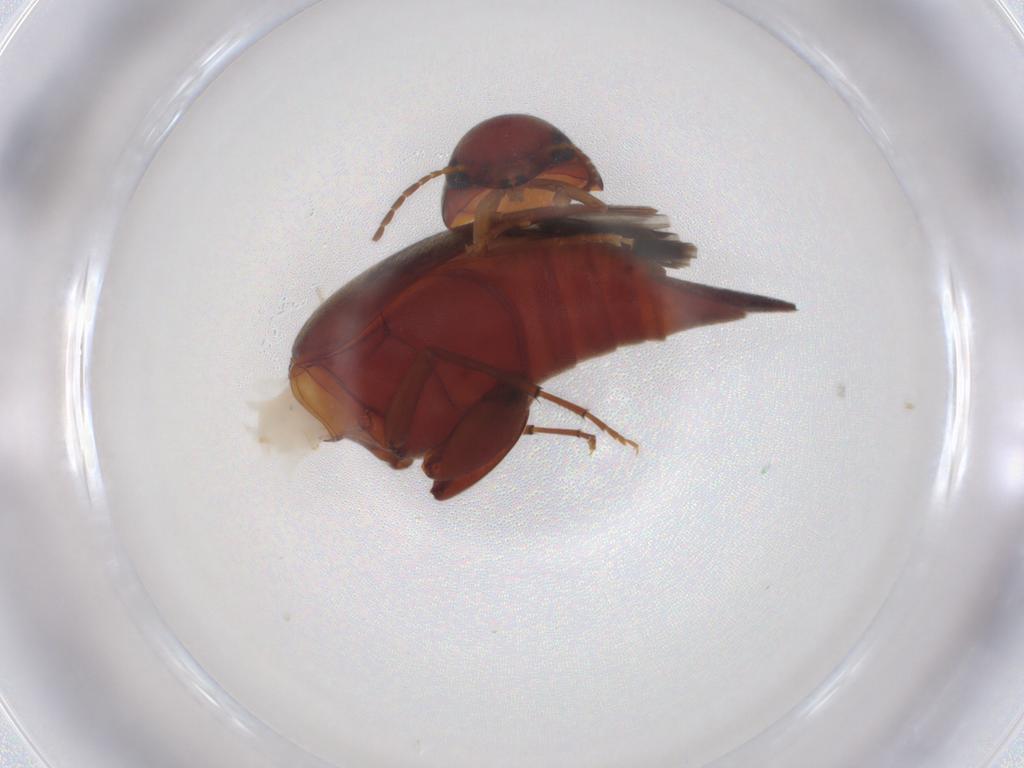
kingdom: Animalia
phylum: Arthropoda
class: Insecta
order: Coleoptera
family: Mordellidae
